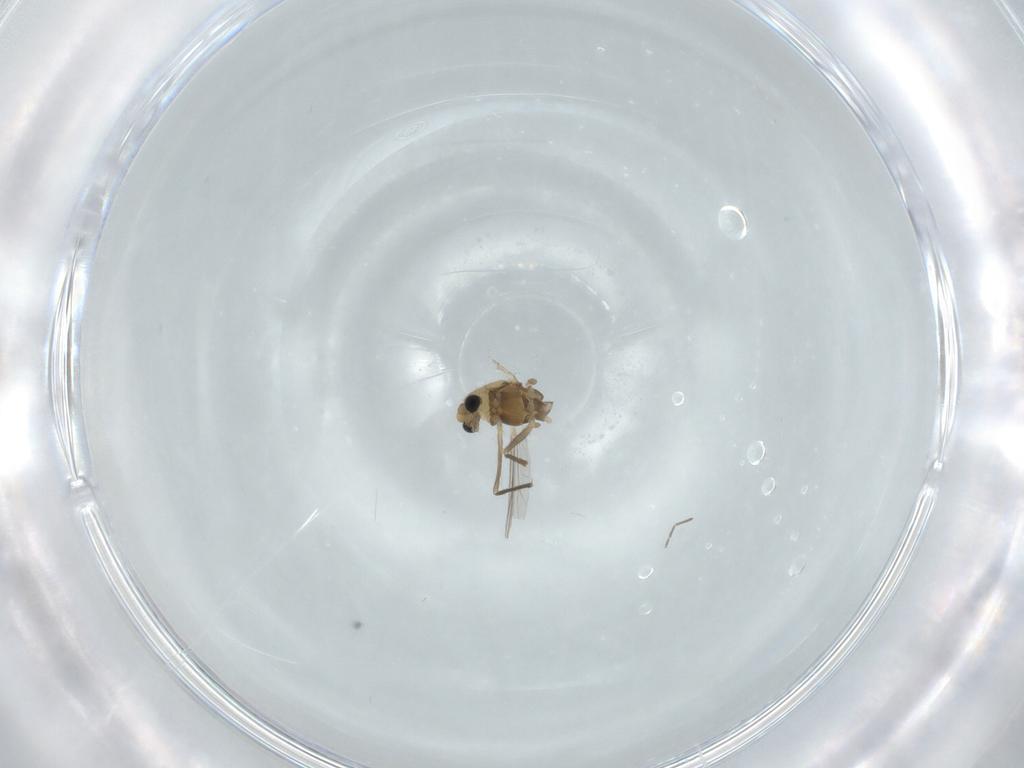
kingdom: Animalia
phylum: Arthropoda
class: Insecta
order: Diptera
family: Chironomidae
